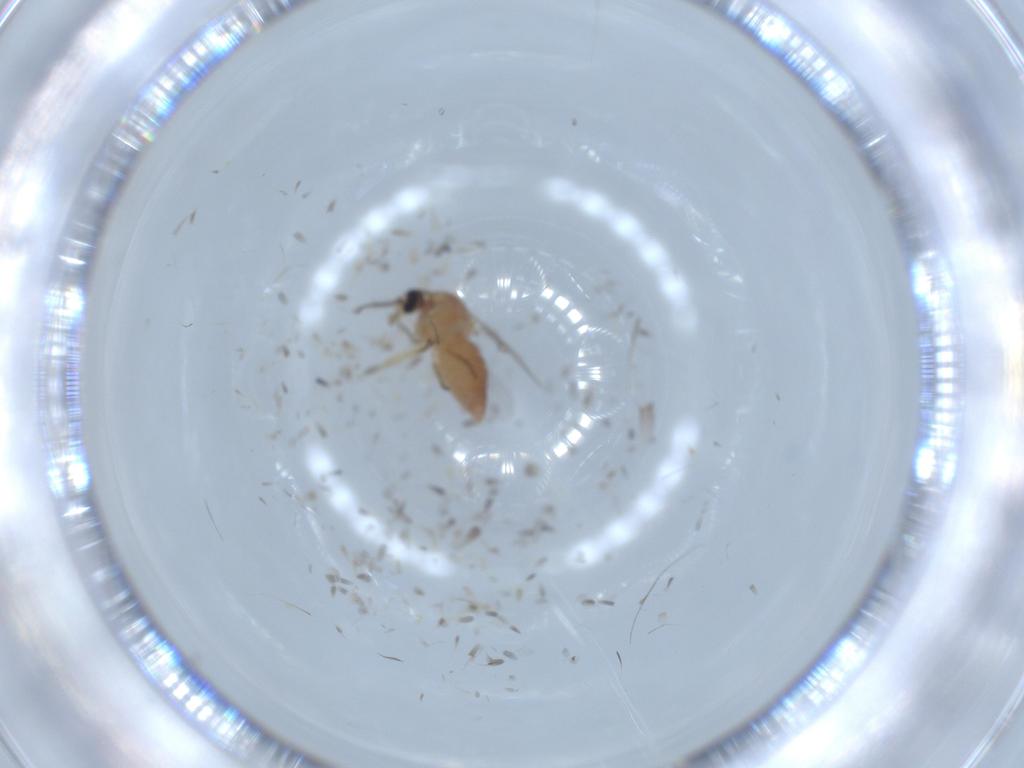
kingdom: Animalia
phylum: Arthropoda
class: Insecta
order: Diptera
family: Ceratopogonidae
